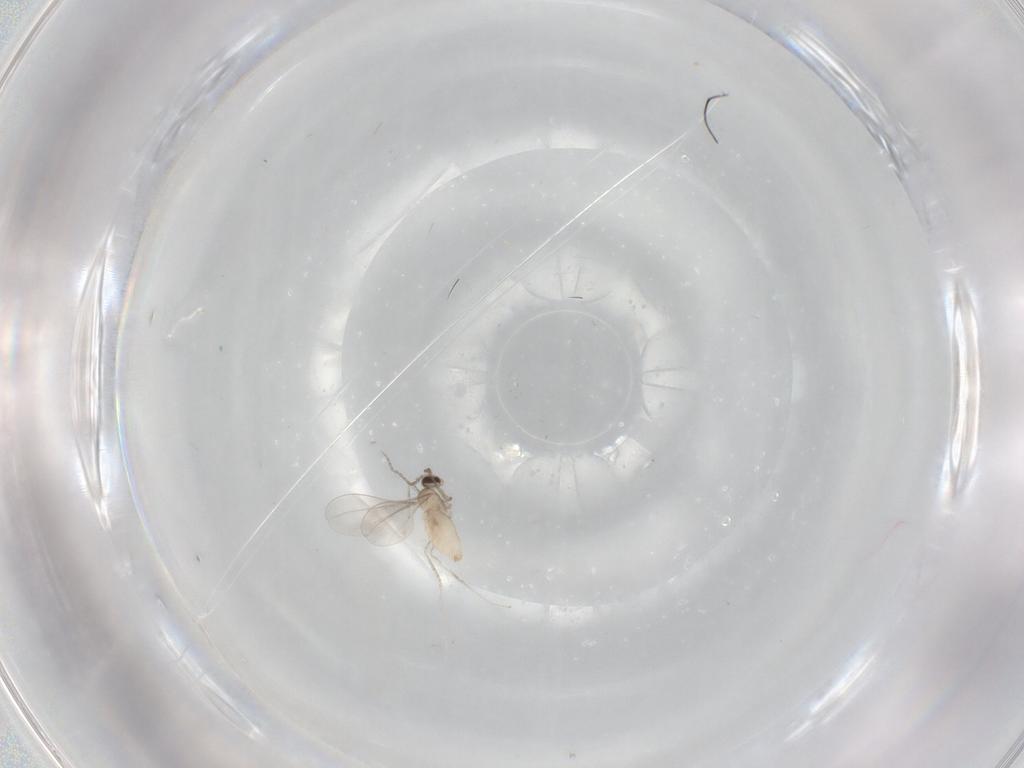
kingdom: Animalia
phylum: Arthropoda
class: Insecta
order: Diptera
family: Cecidomyiidae
